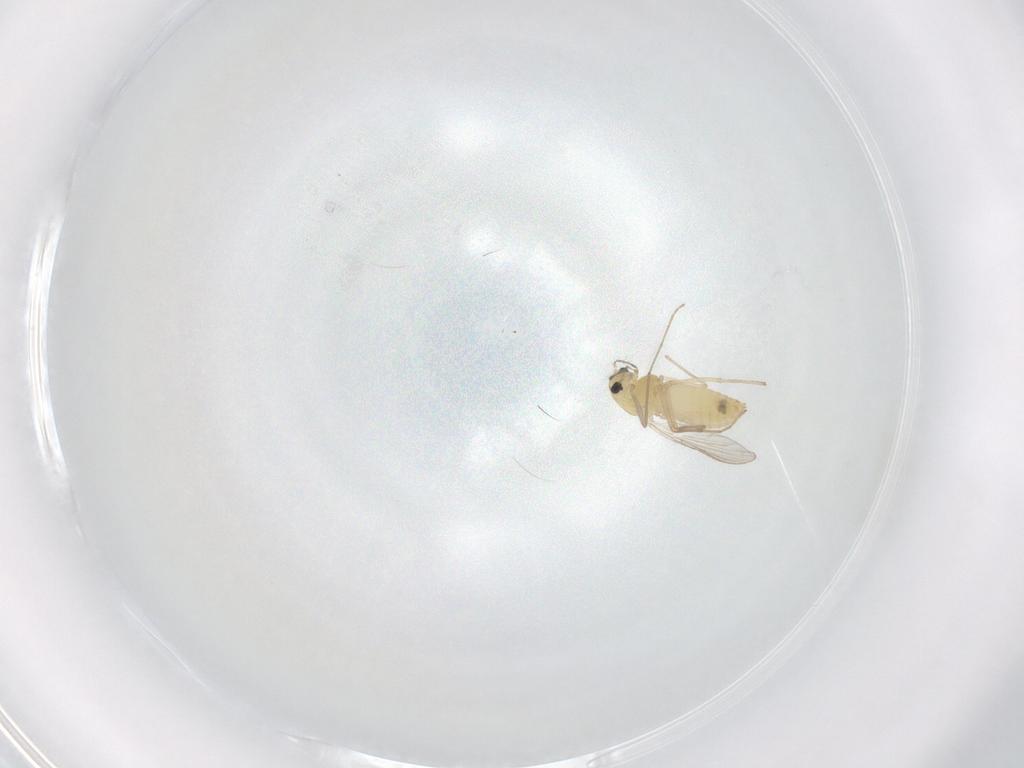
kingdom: Animalia
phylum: Arthropoda
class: Insecta
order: Diptera
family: Chironomidae
